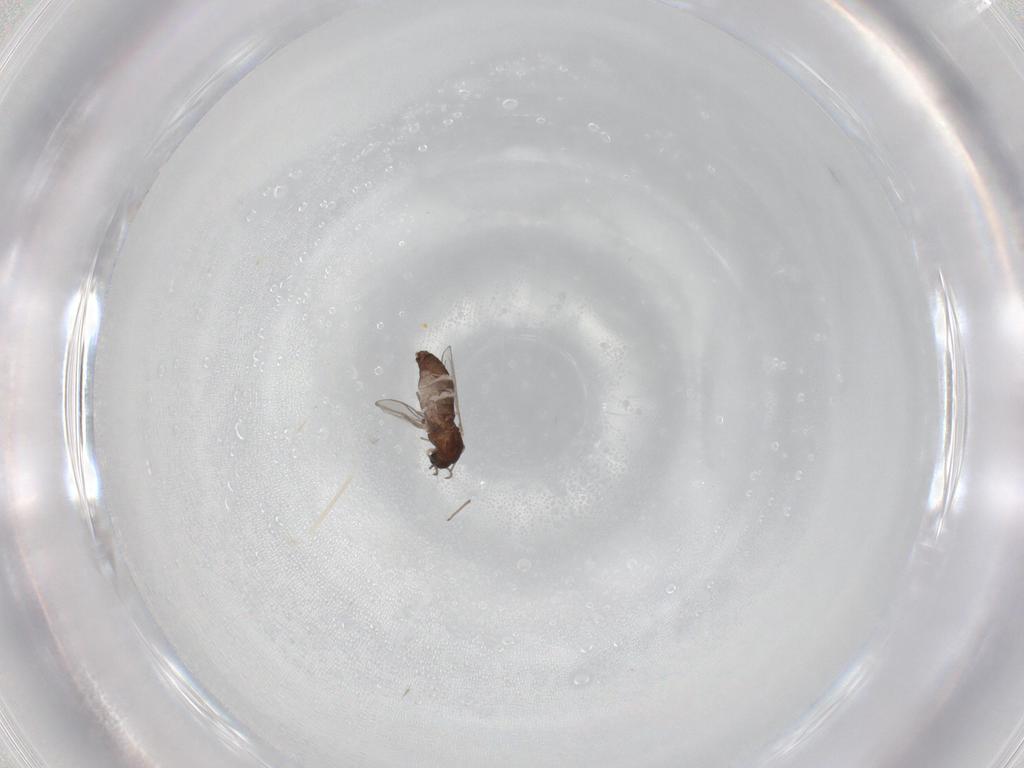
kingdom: Animalia
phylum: Arthropoda
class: Insecta
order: Diptera
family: Chironomidae
